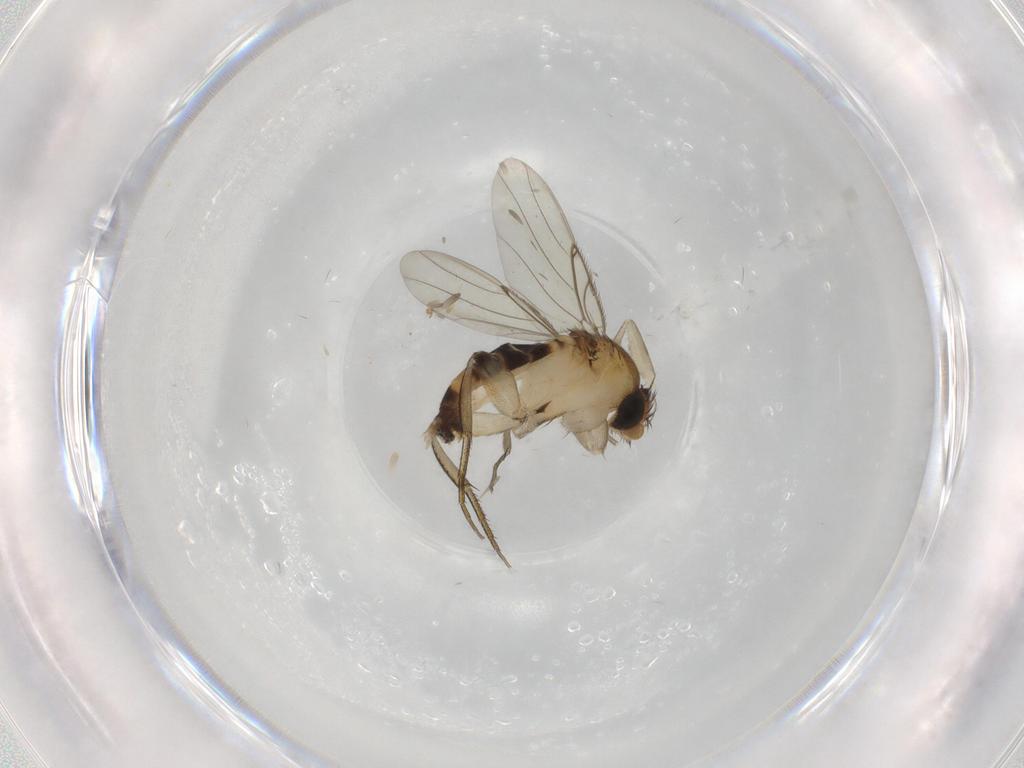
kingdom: Animalia
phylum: Arthropoda
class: Insecta
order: Diptera
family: Phoridae
